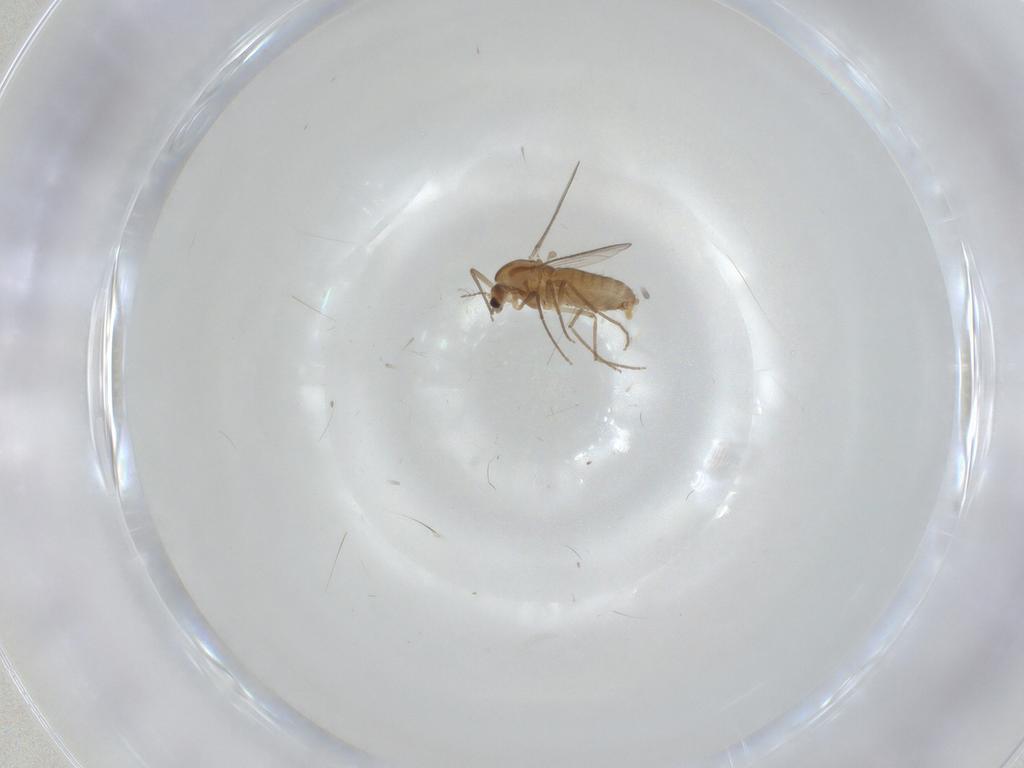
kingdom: Animalia
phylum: Arthropoda
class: Insecta
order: Diptera
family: Chironomidae
